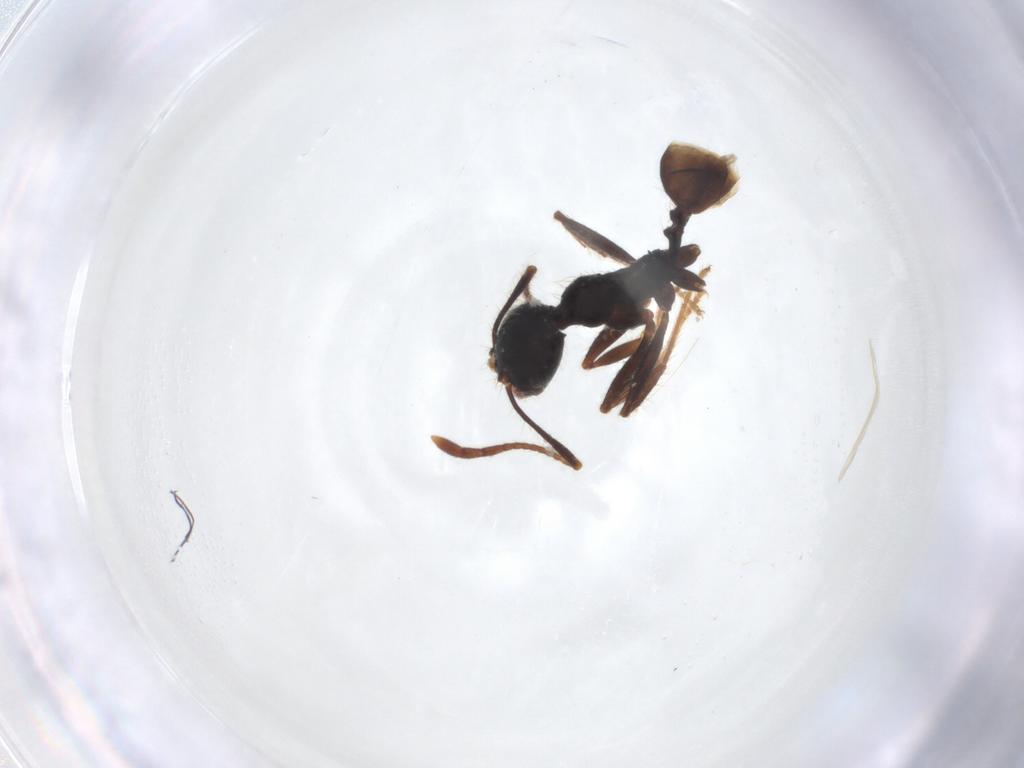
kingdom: Animalia
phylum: Arthropoda
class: Insecta
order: Hymenoptera
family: Formicidae
